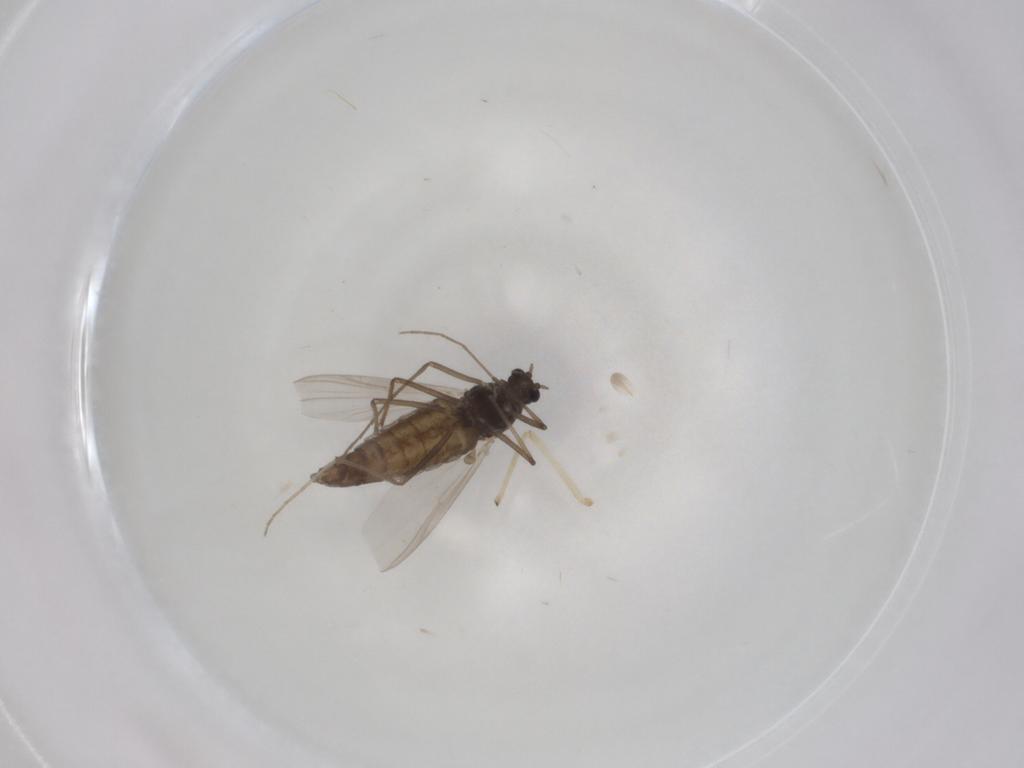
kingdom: Animalia
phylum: Arthropoda
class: Insecta
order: Diptera
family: Chironomidae
